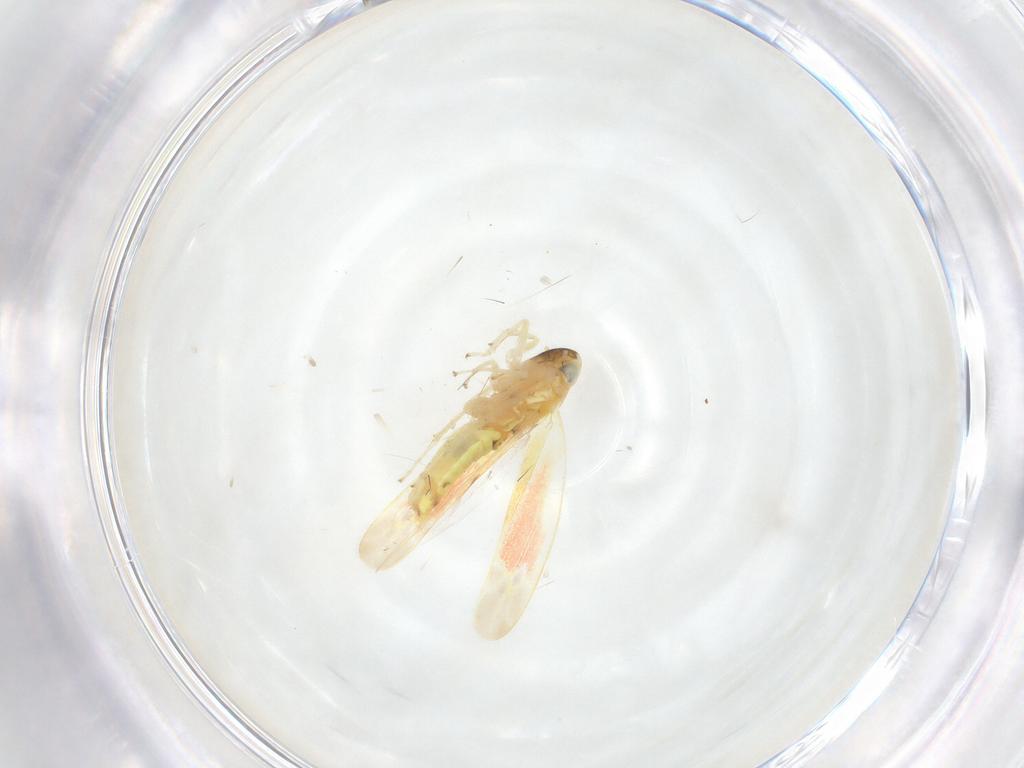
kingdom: Animalia
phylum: Arthropoda
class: Insecta
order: Hemiptera
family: Cicadellidae
